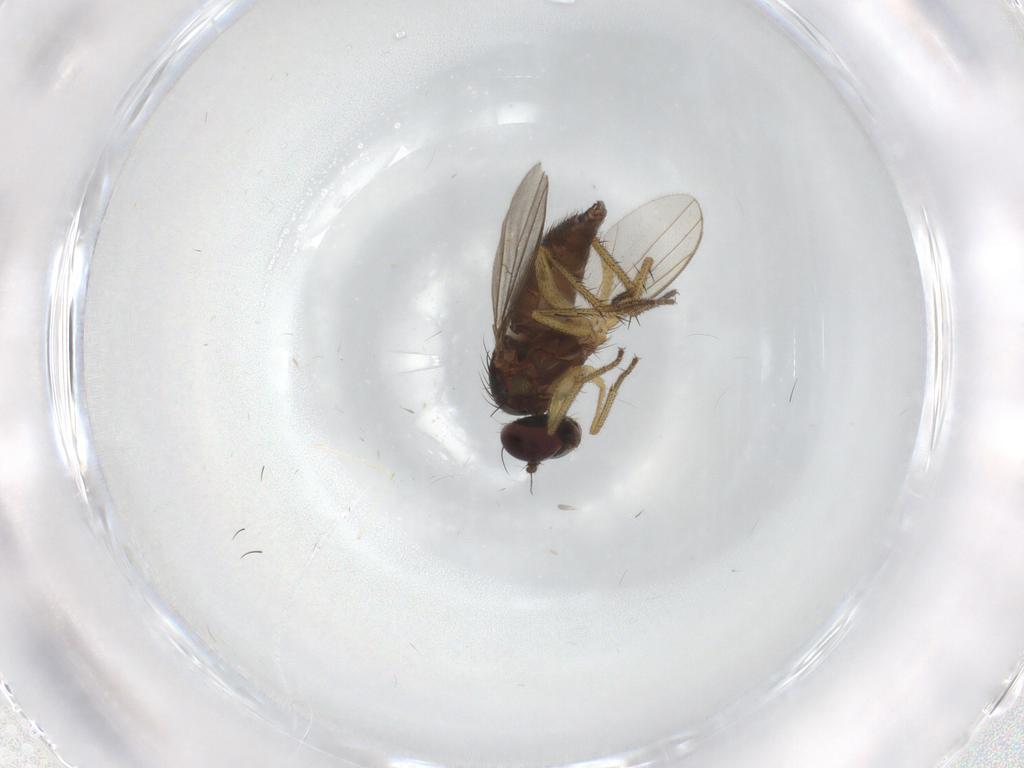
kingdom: Animalia
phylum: Arthropoda
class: Insecta
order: Diptera
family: Dolichopodidae
